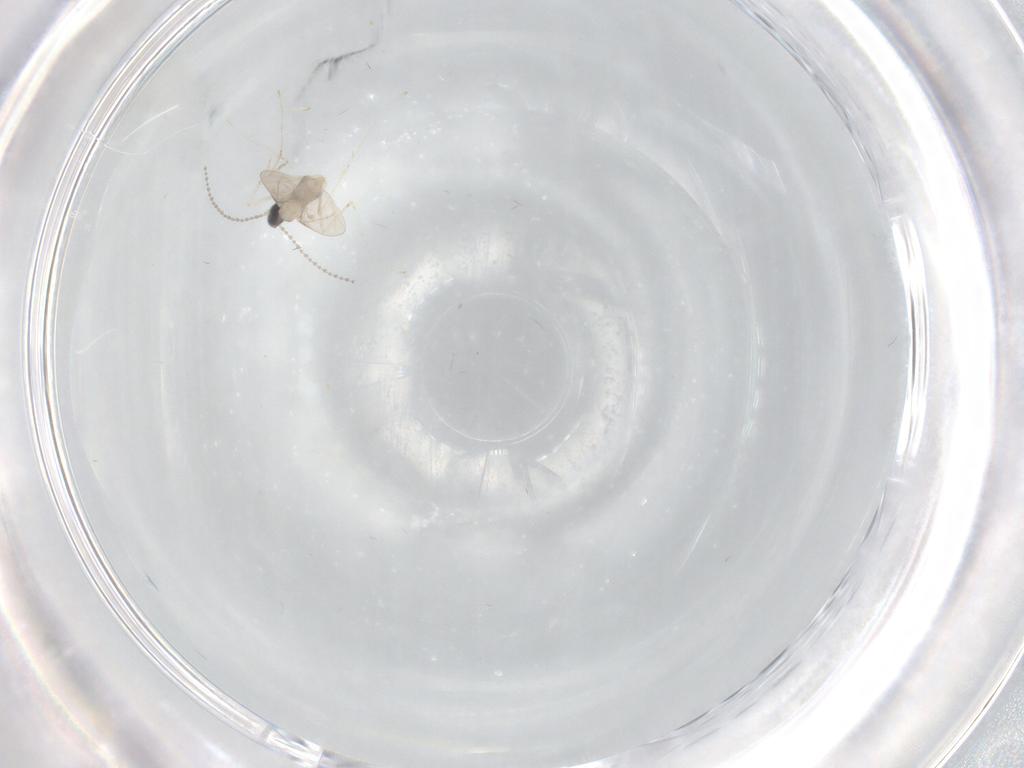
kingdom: Animalia
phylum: Arthropoda
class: Insecta
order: Diptera
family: Cecidomyiidae
